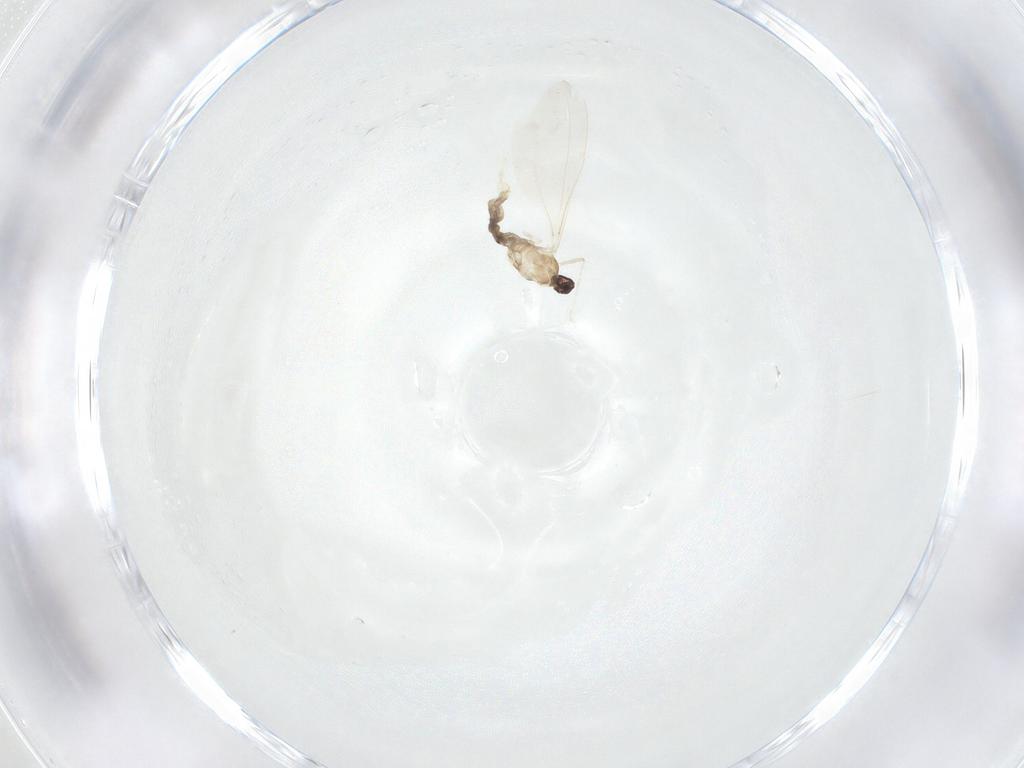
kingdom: Animalia
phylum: Arthropoda
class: Insecta
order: Diptera
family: Cecidomyiidae
